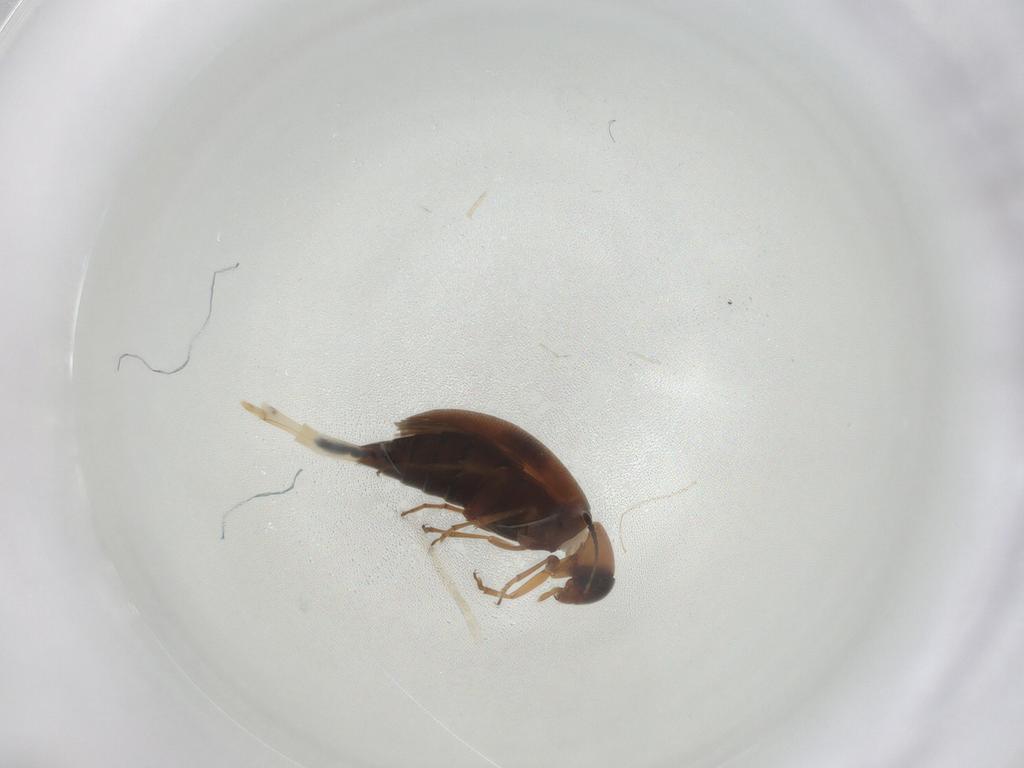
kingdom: Animalia
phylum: Arthropoda
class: Insecta
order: Coleoptera
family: Scraptiidae
